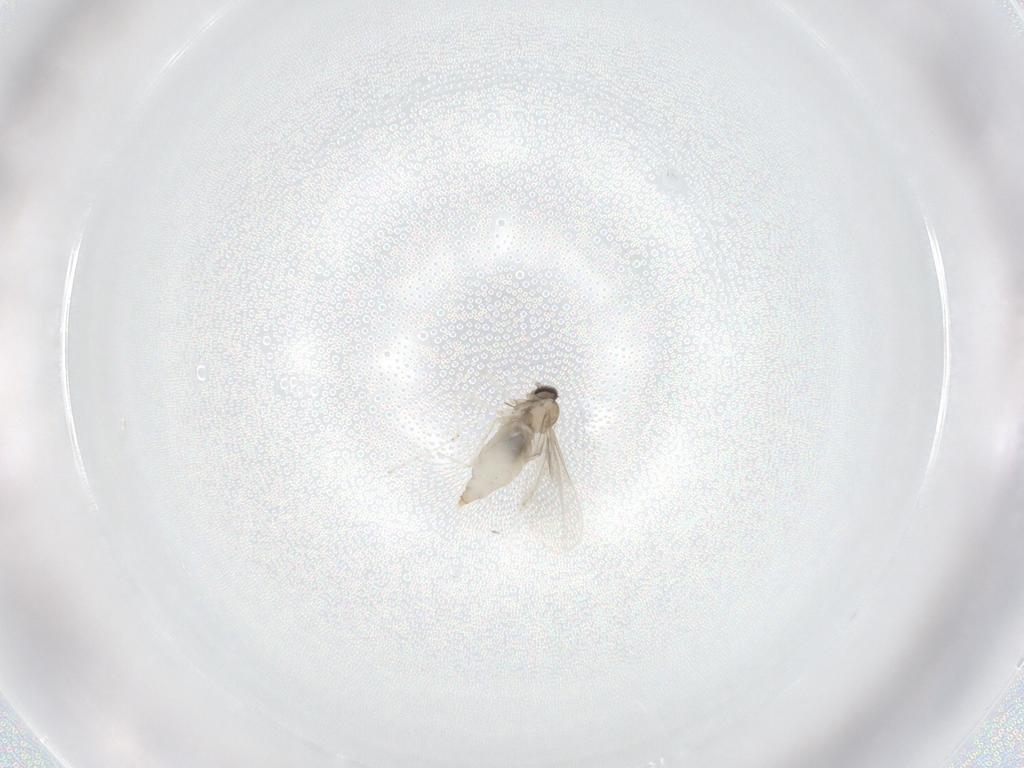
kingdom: Animalia
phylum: Arthropoda
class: Insecta
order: Diptera
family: Cecidomyiidae
